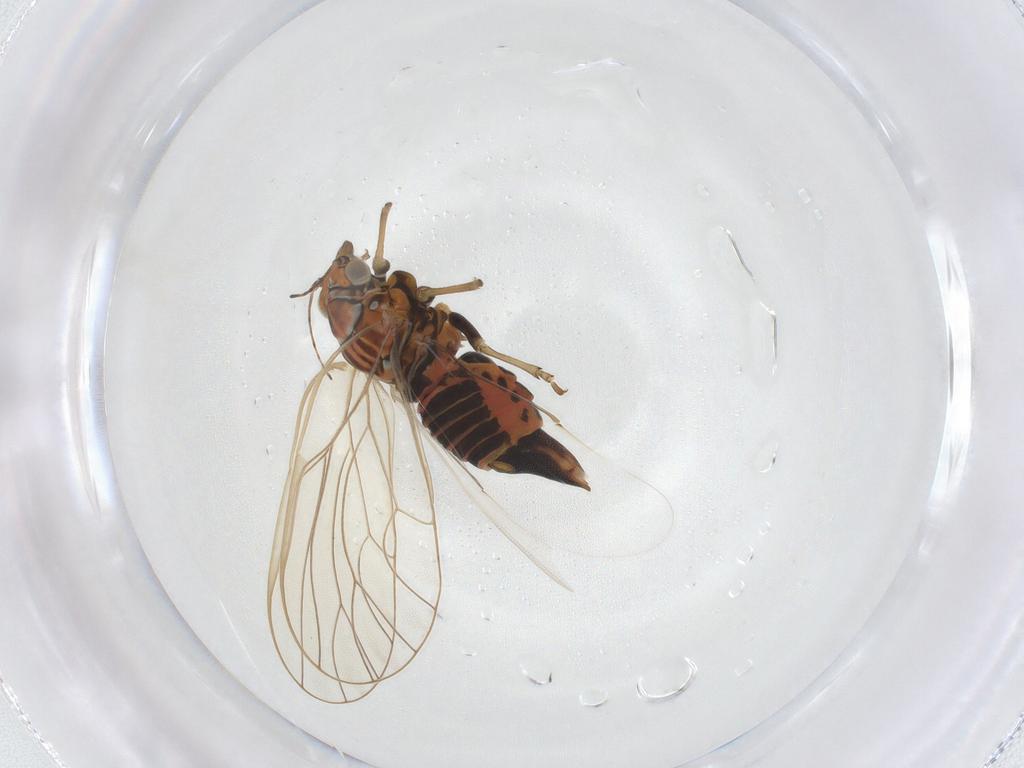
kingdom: Animalia
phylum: Arthropoda
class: Insecta
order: Hemiptera
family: Psyllidae
